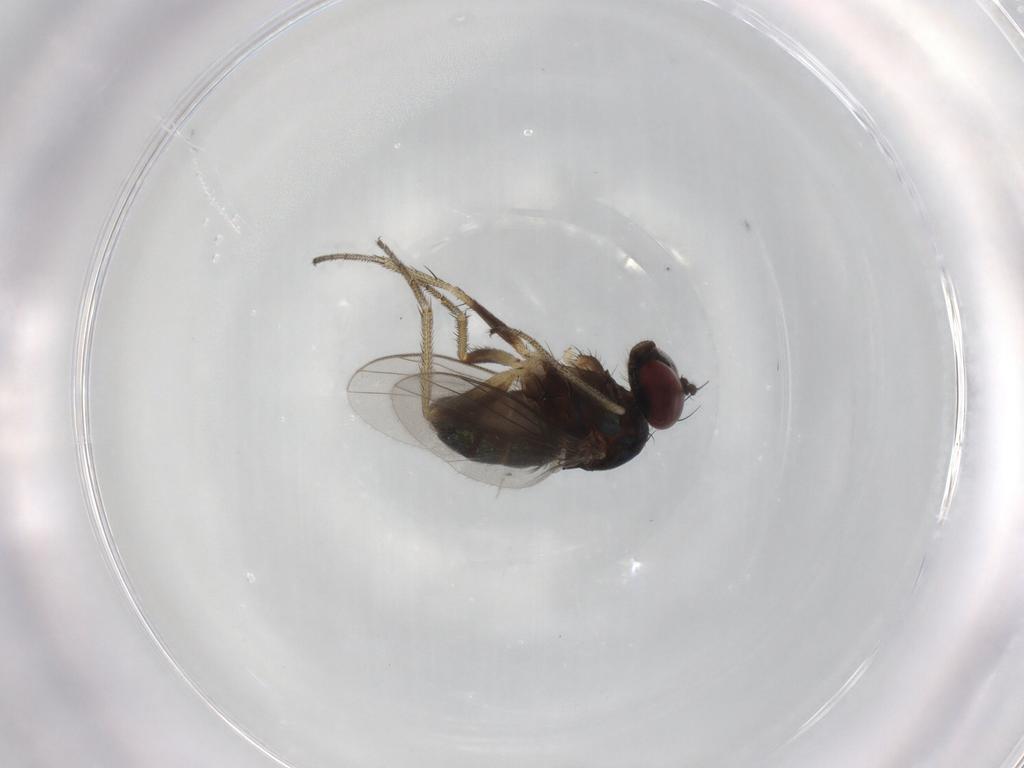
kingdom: Animalia
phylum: Arthropoda
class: Insecta
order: Diptera
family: Dolichopodidae
